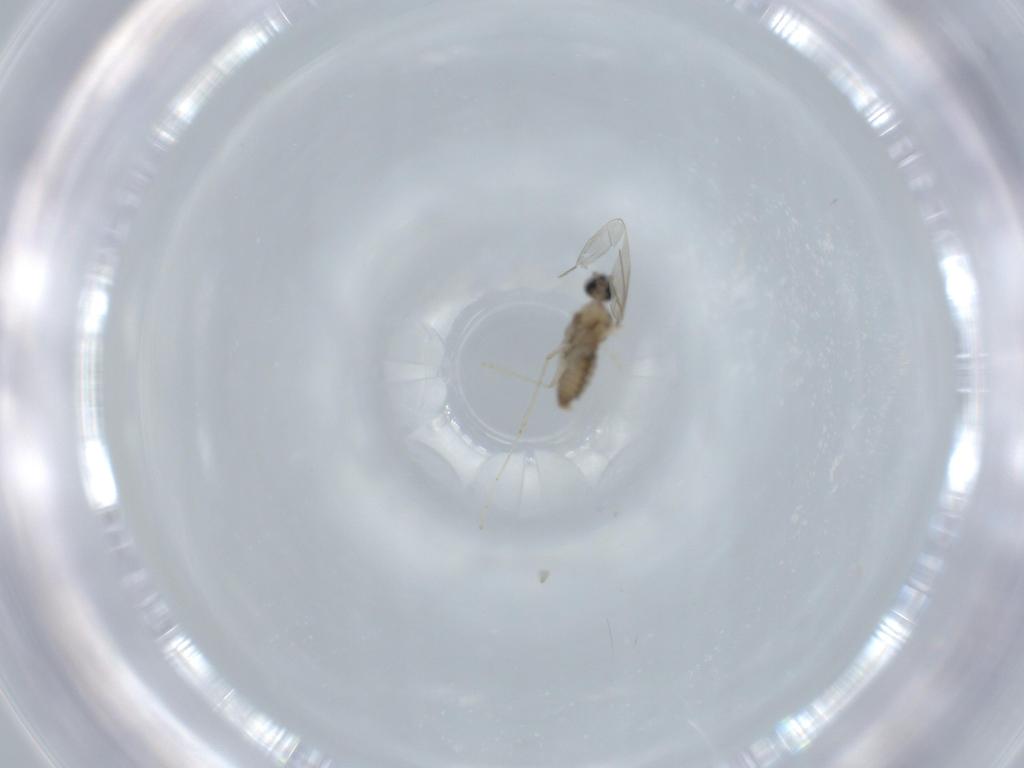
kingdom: Animalia
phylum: Arthropoda
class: Insecta
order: Diptera
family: Cecidomyiidae
